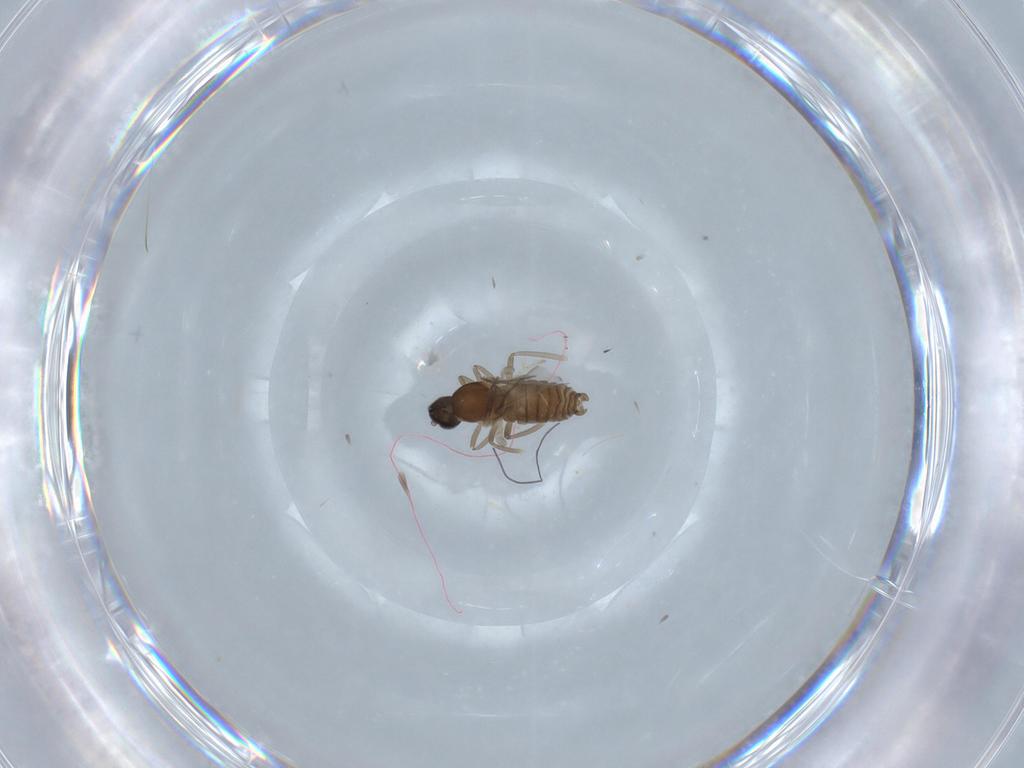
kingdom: Animalia
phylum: Arthropoda
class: Insecta
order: Diptera
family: Cecidomyiidae
